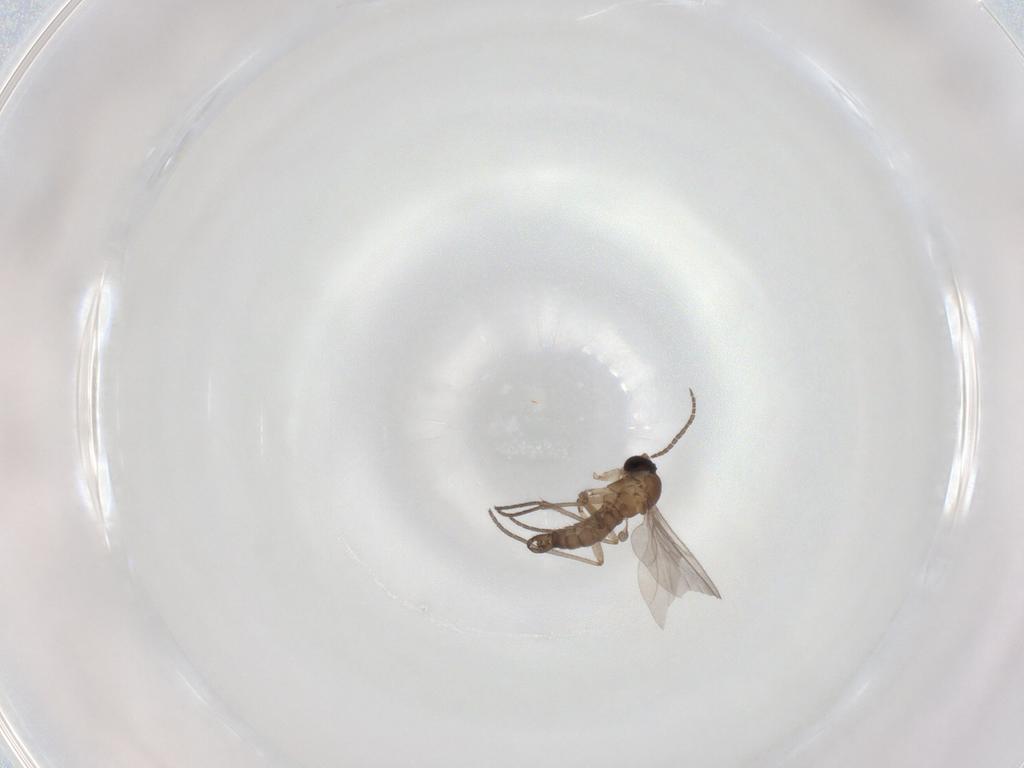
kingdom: Animalia
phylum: Arthropoda
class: Insecta
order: Diptera
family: Sciaridae
